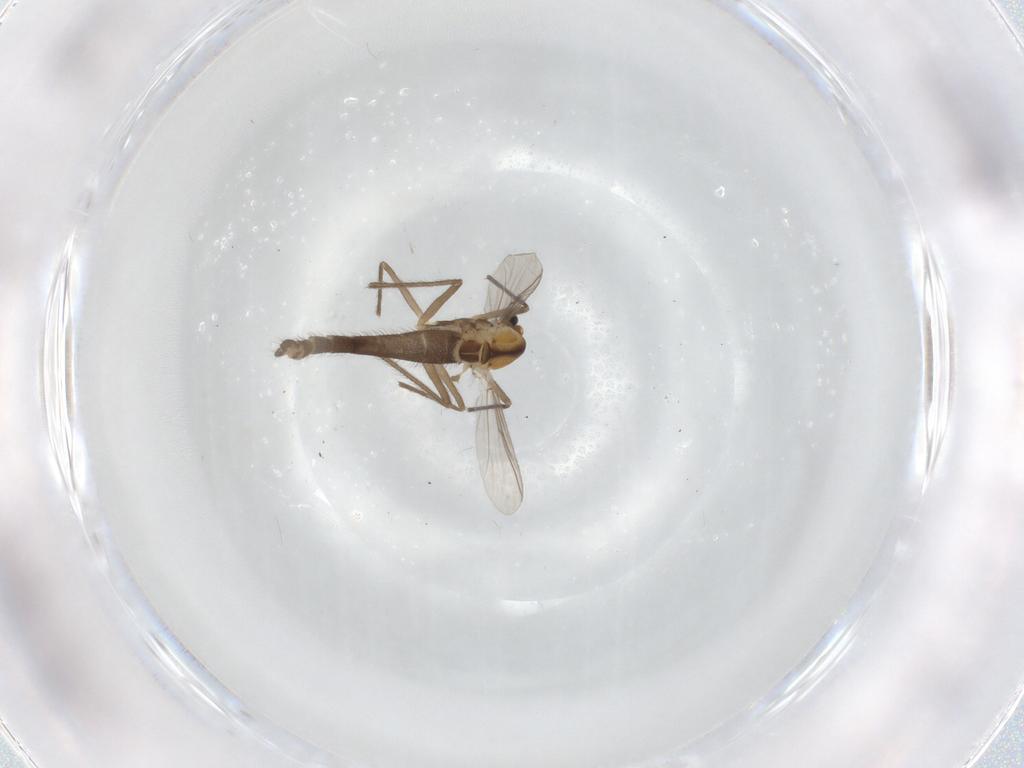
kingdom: Animalia
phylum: Arthropoda
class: Insecta
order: Diptera
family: Chironomidae
